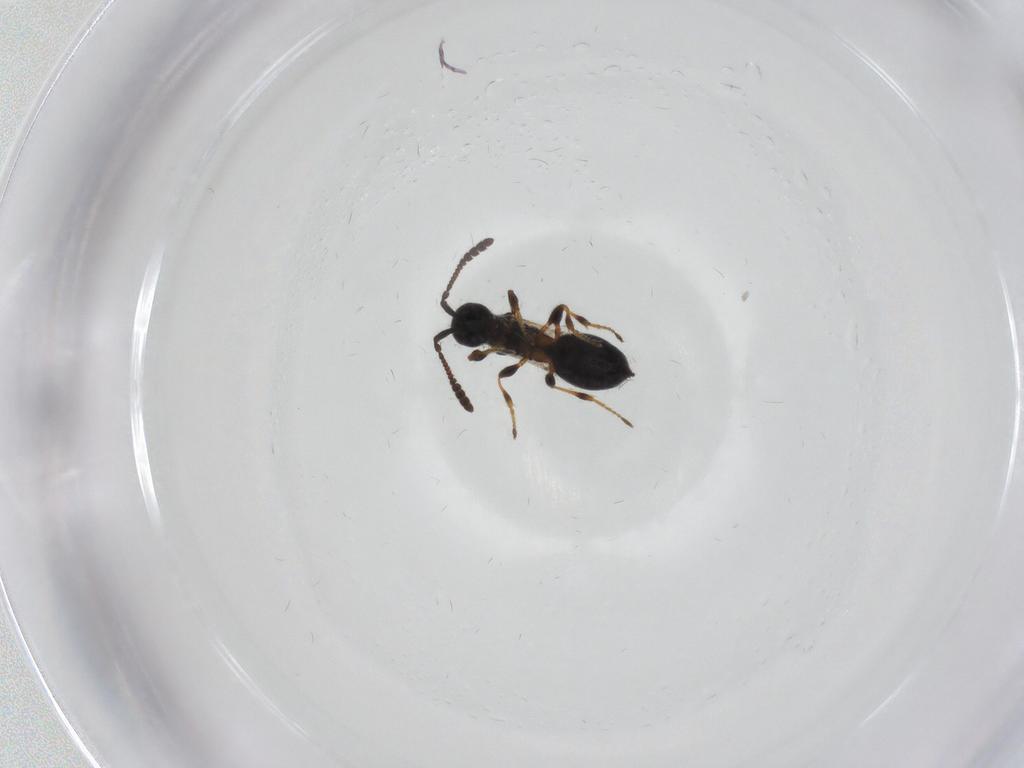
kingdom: Animalia
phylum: Arthropoda
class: Insecta
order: Hymenoptera
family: Diapriidae
